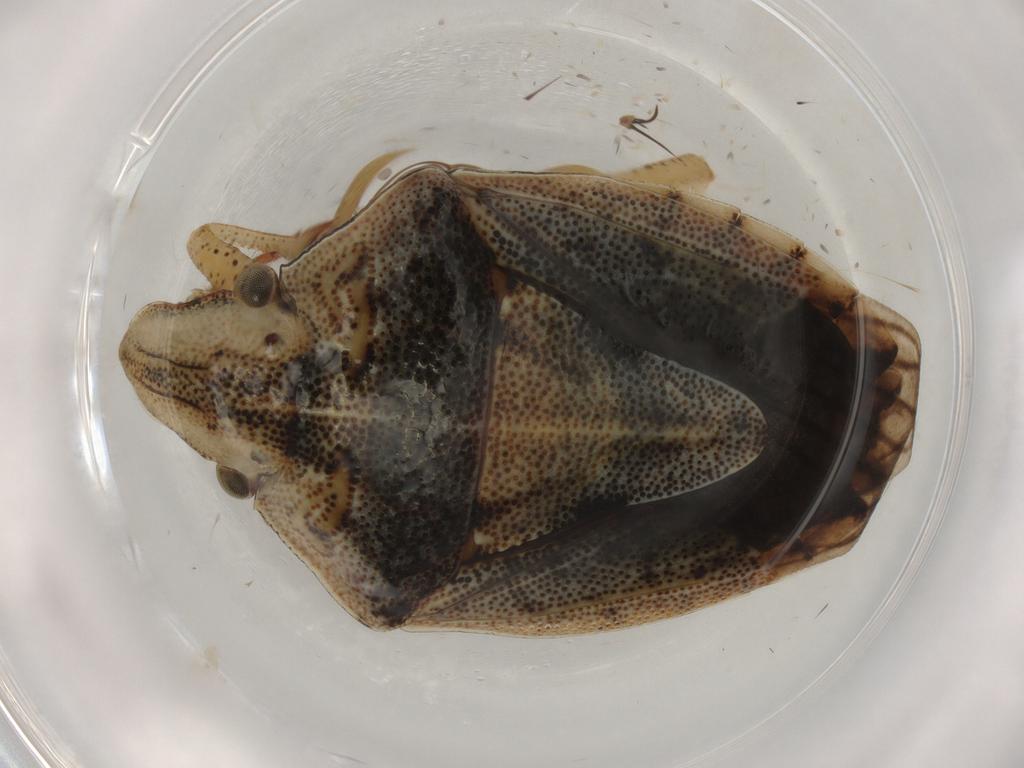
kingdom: Animalia
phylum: Arthropoda
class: Insecta
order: Hemiptera
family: Pentatomidae
